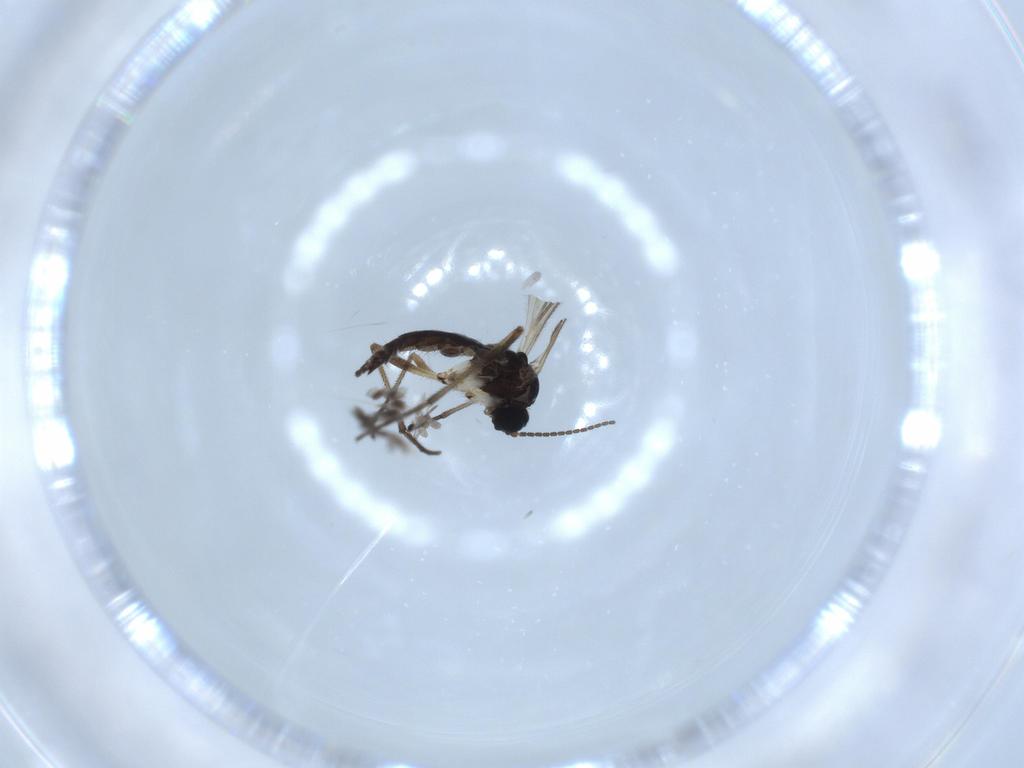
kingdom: Animalia
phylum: Arthropoda
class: Insecta
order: Diptera
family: Sciaridae
